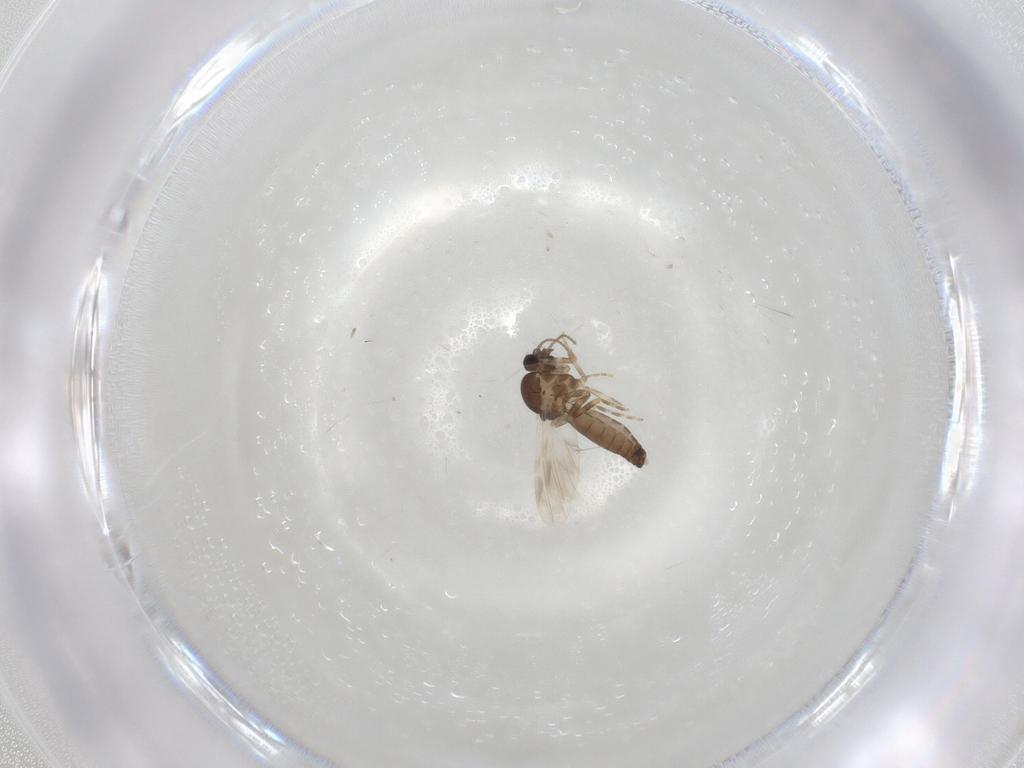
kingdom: Animalia
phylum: Arthropoda
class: Insecta
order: Diptera
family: Ceratopogonidae
